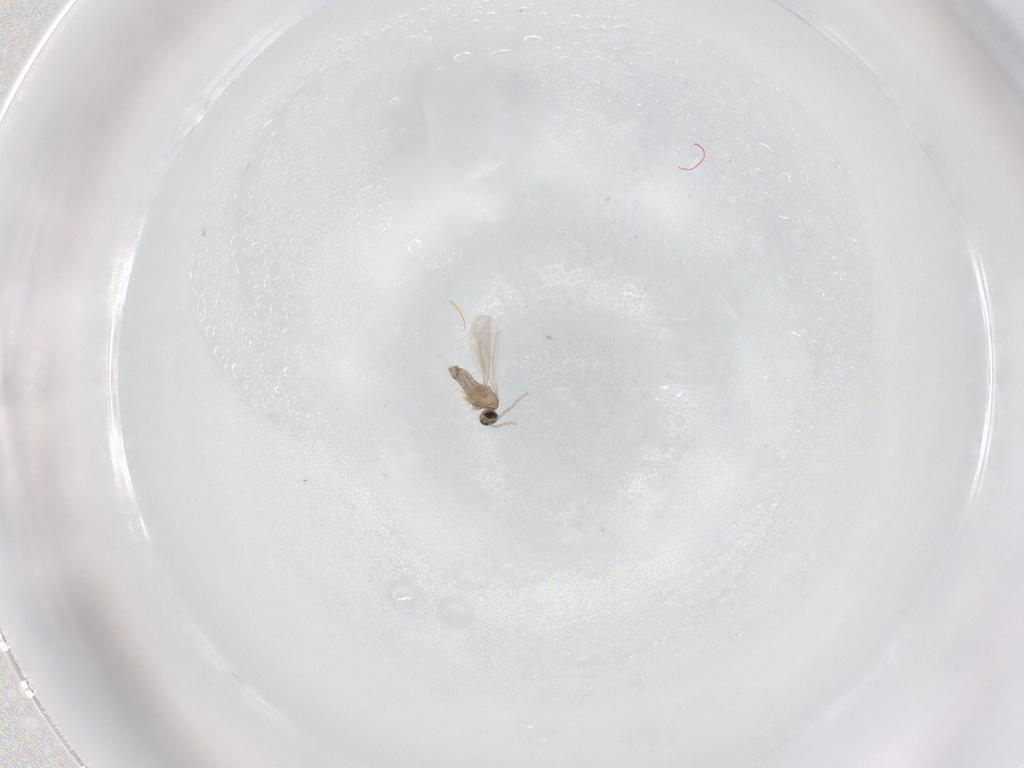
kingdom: Animalia
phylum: Arthropoda
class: Insecta
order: Diptera
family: Cecidomyiidae
